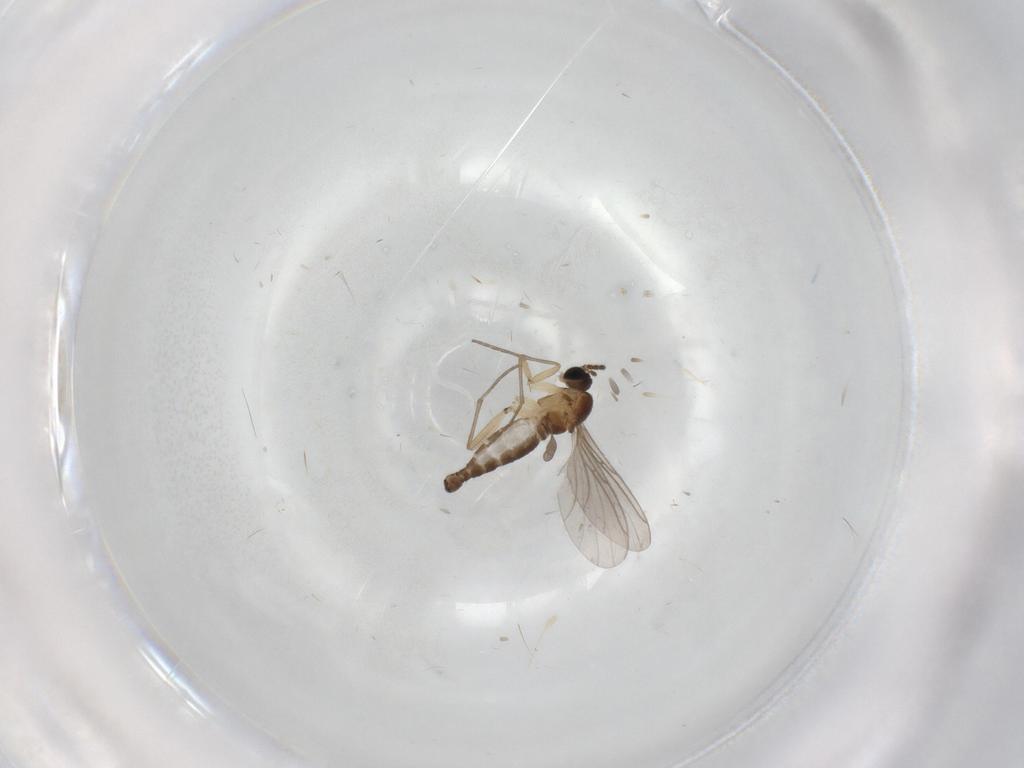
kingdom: Animalia
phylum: Arthropoda
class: Insecta
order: Diptera
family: Sciaridae
